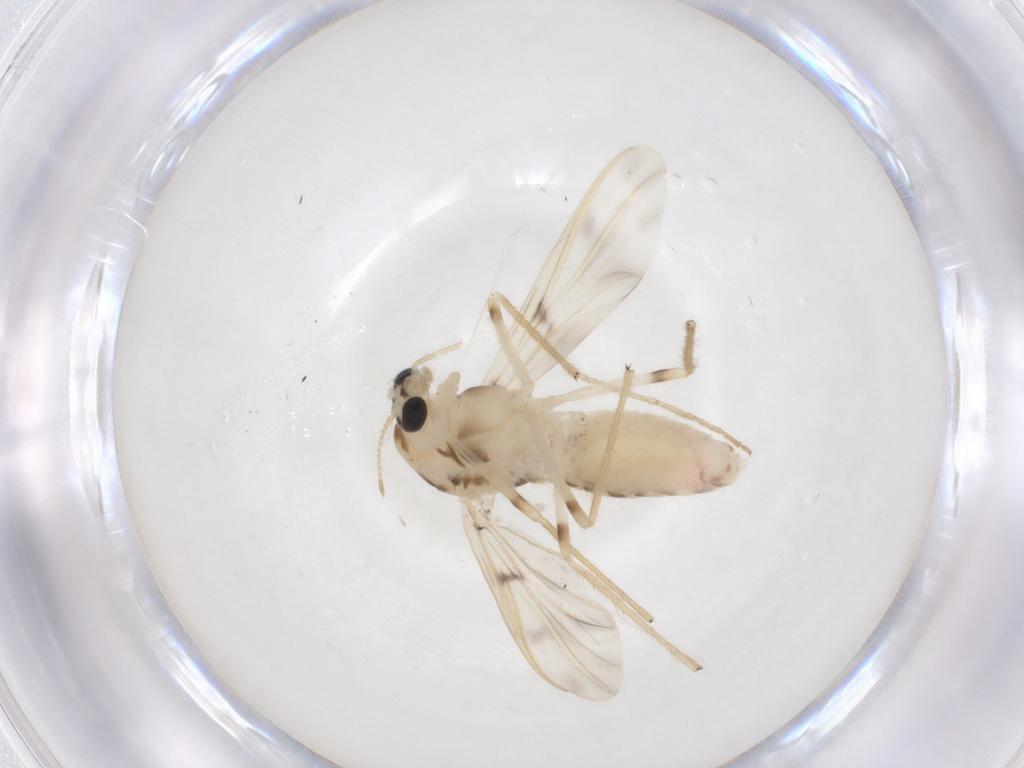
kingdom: Animalia
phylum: Arthropoda
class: Insecta
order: Diptera
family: Chironomidae
